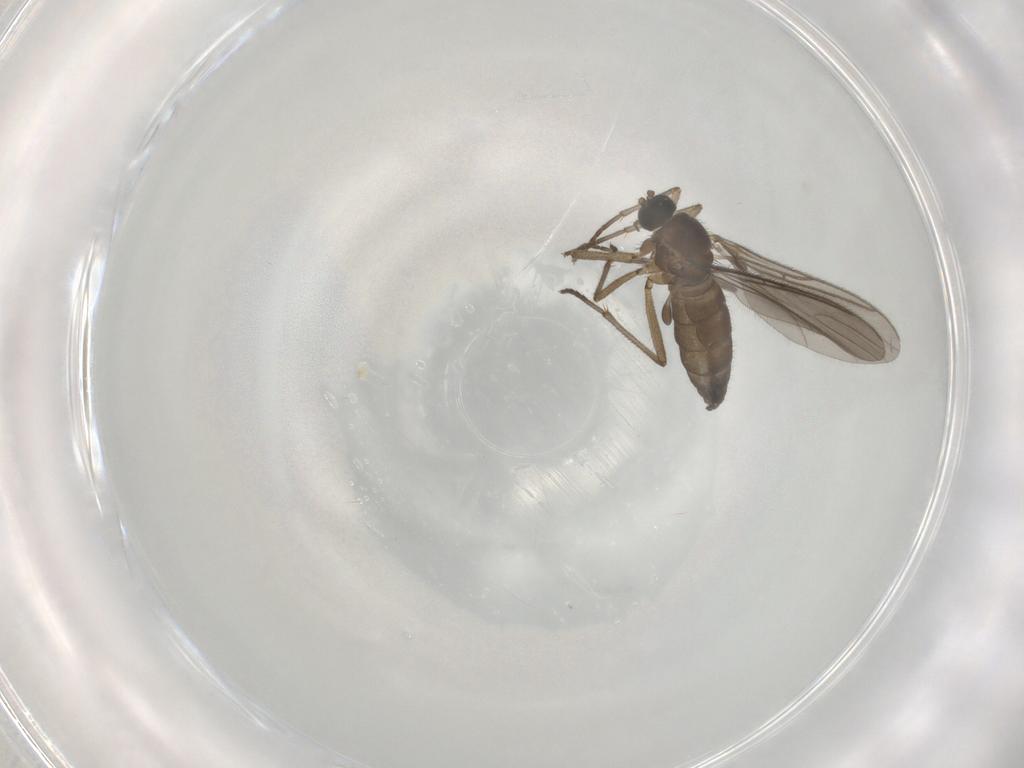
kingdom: Animalia
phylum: Arthropoda
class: Insecta
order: Diptera
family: Sciaridae
